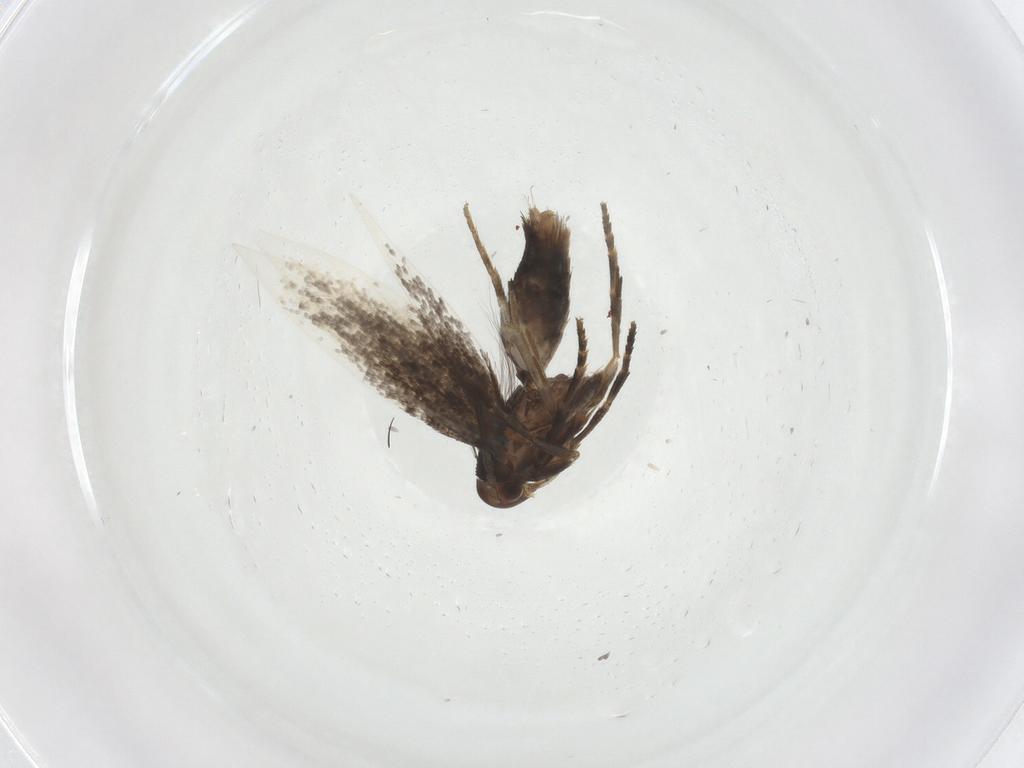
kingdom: Animalia
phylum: Arthropoda
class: Insecta
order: Lepidoptera
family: Elachistidae
